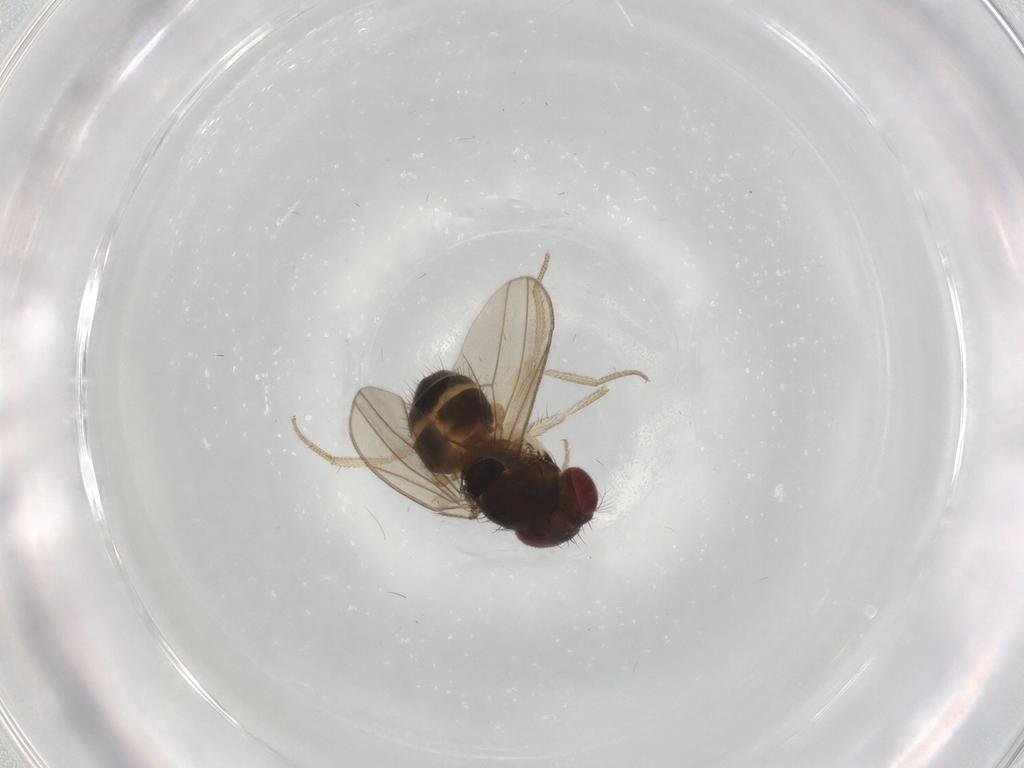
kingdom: Animalia
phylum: Arthropoda
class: Insecta
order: Diptera
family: Drosophilidae
